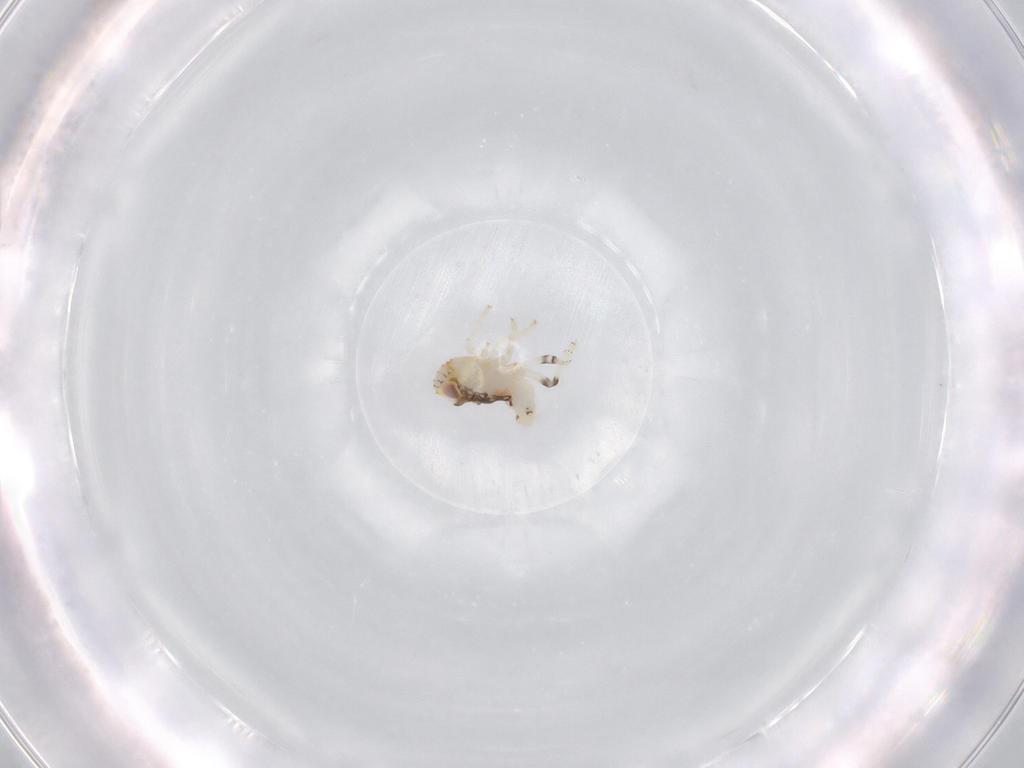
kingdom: Animalia
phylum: Arthropoda
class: Insecta
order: Hemiptera
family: Nogodinidae
